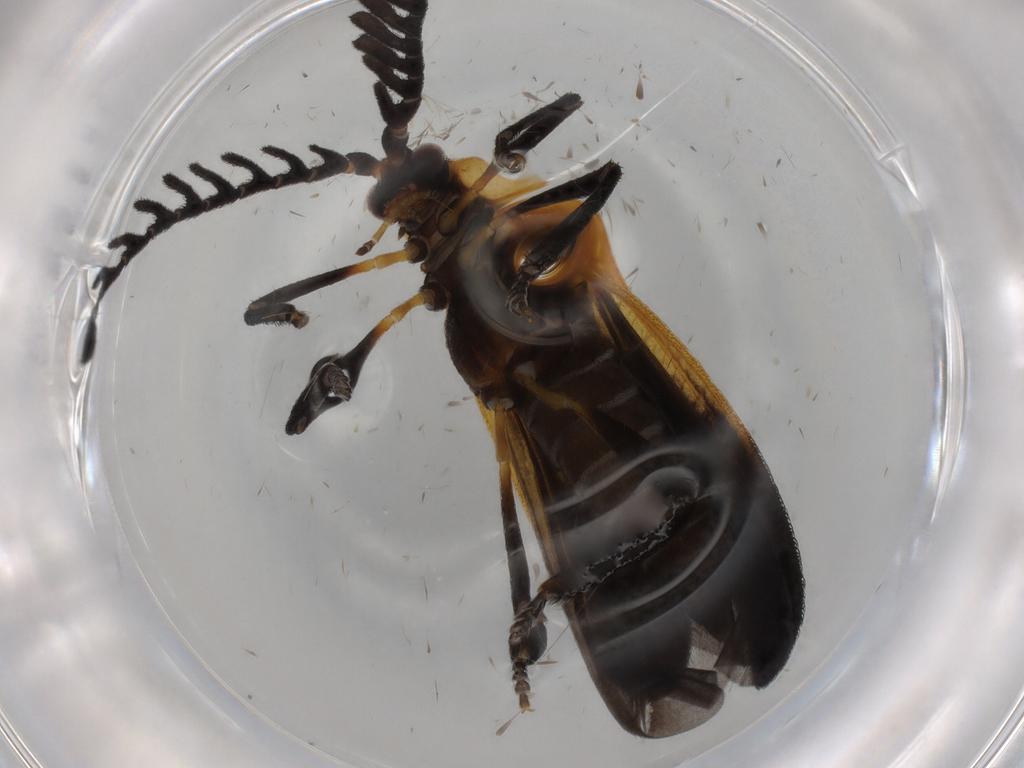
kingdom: Animalia
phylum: Arthropoda
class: Insecta
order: Coleoptera
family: Lycidae
